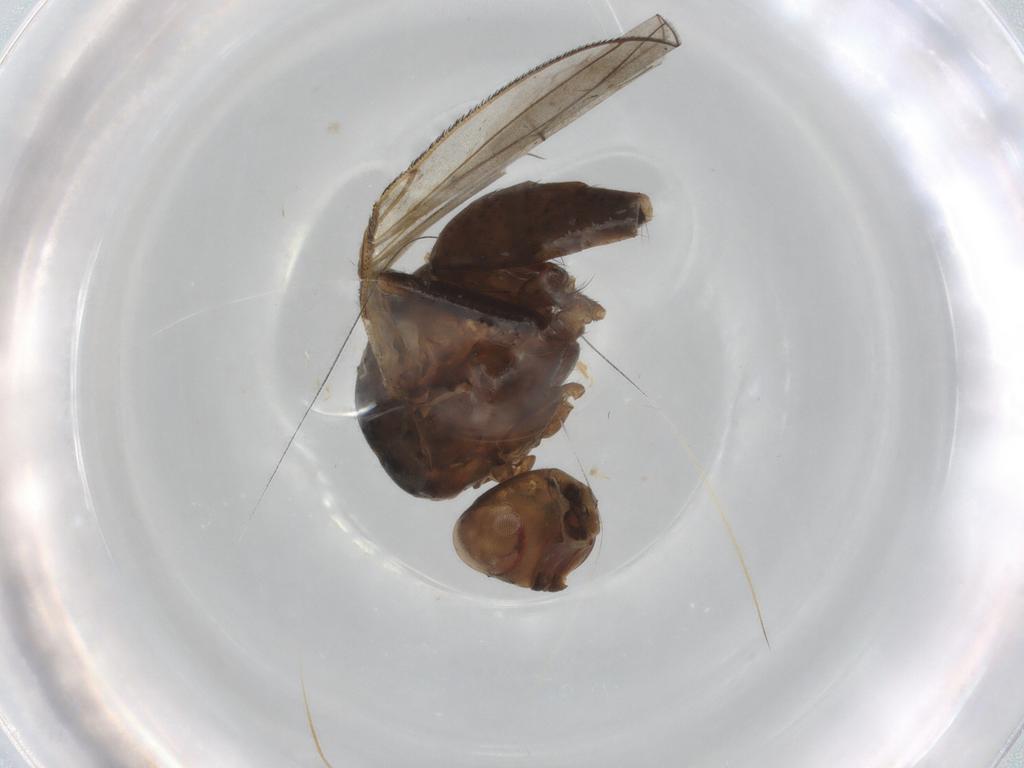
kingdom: Animalia
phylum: Arthropoda
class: Insecta
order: Diptera
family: Anthomyiidae
